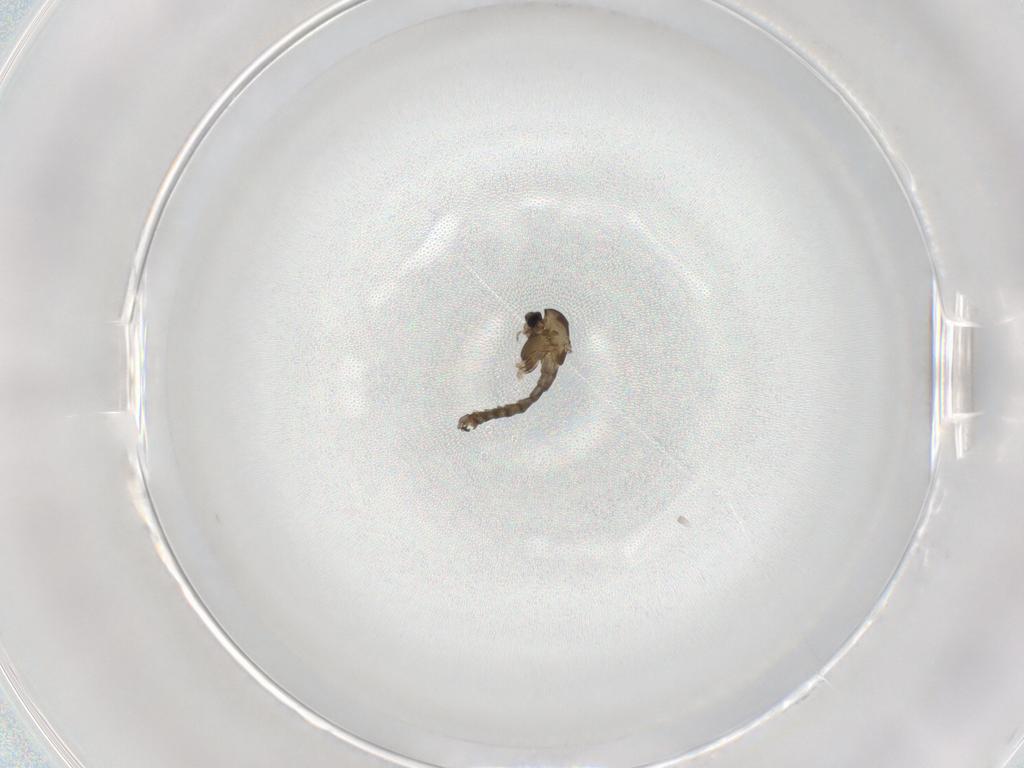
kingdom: Animalia
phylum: Arthropoda
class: Insecta
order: Diptera
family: Chironomidae
